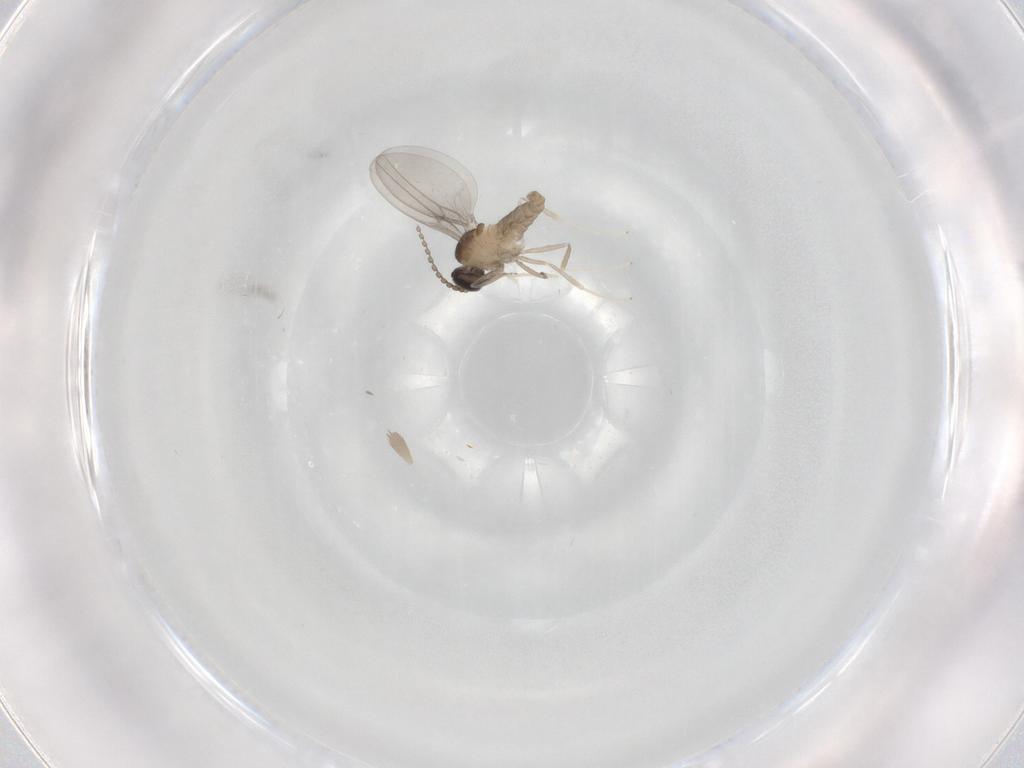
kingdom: Animalia
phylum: Arthropoda
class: Insecta
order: Diptera
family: Cecidomyiidae
